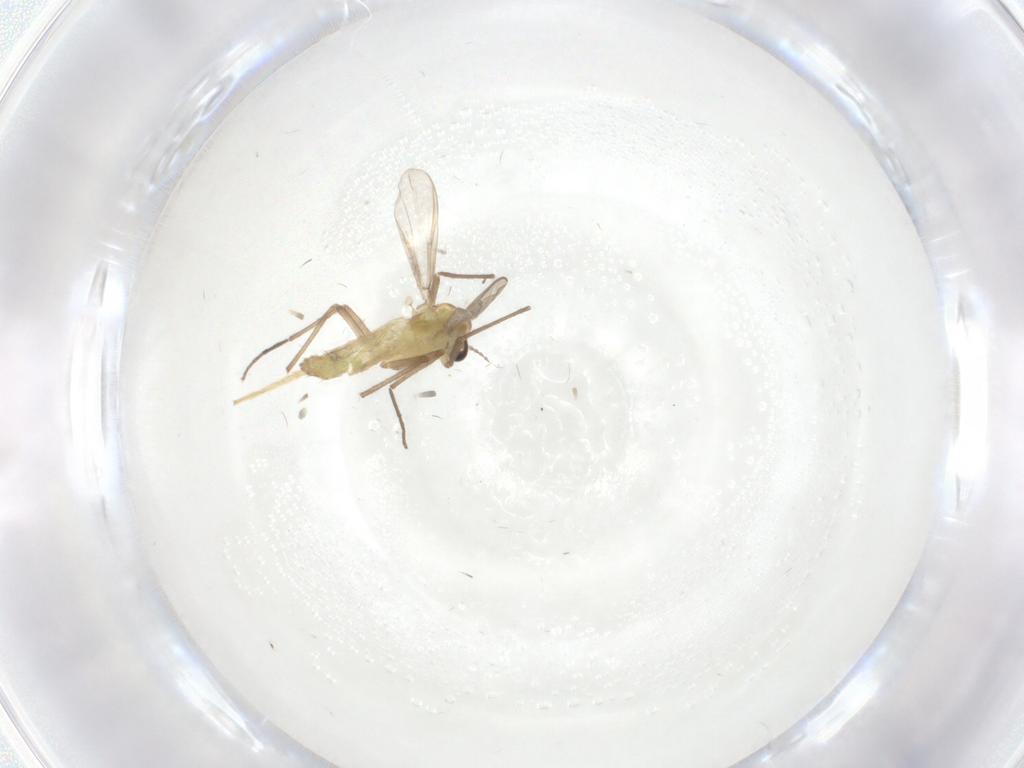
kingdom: Animalia
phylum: Arthropoda
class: Insecta
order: Diptera
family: Chironomidae
